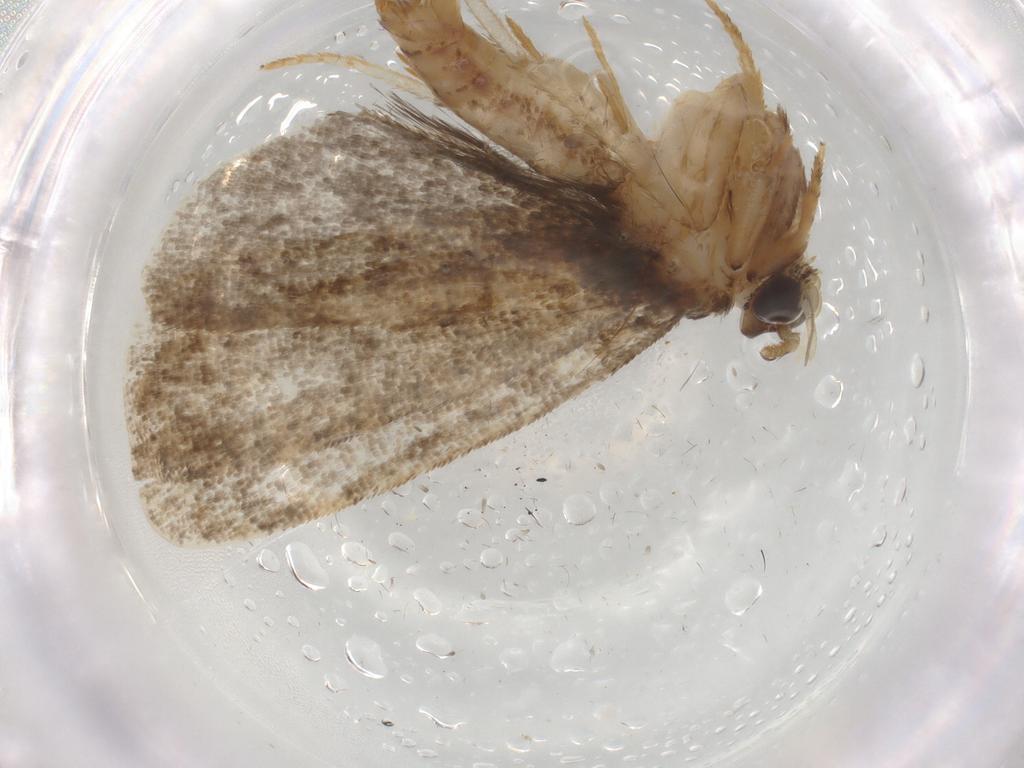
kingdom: Animalia
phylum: Arthropoda
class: Insecta
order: Lepidoptera
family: Tineidae
